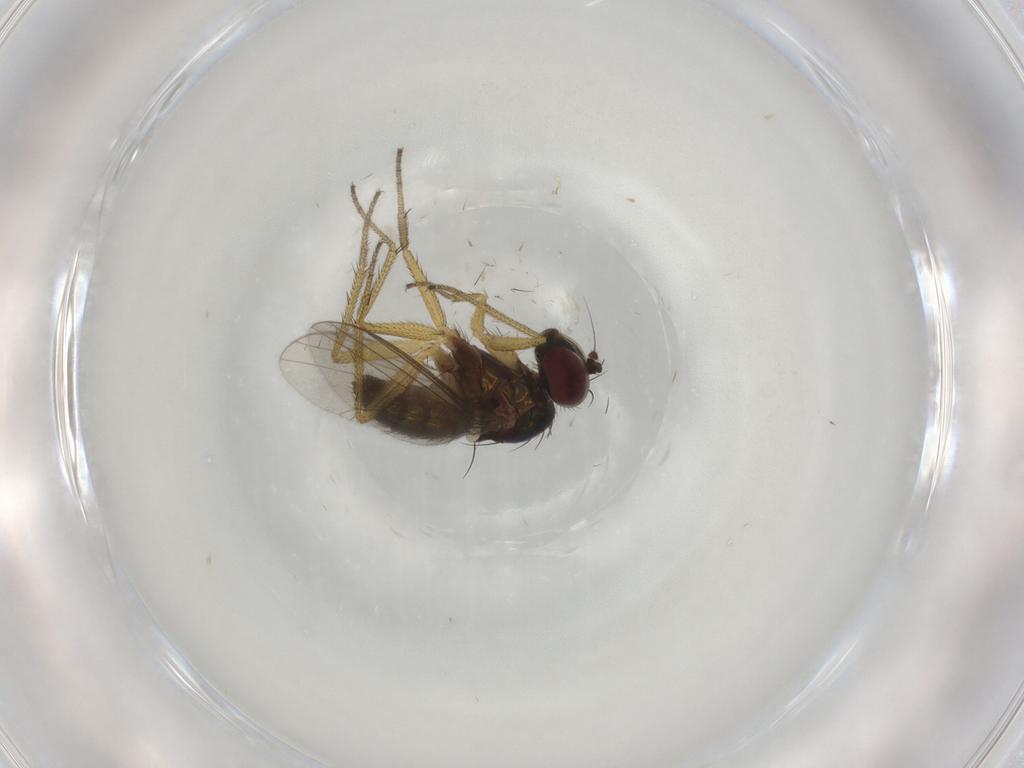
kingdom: Animalia
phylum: Arthropoda
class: Insecta
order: Diptera
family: Dolichopodidae
